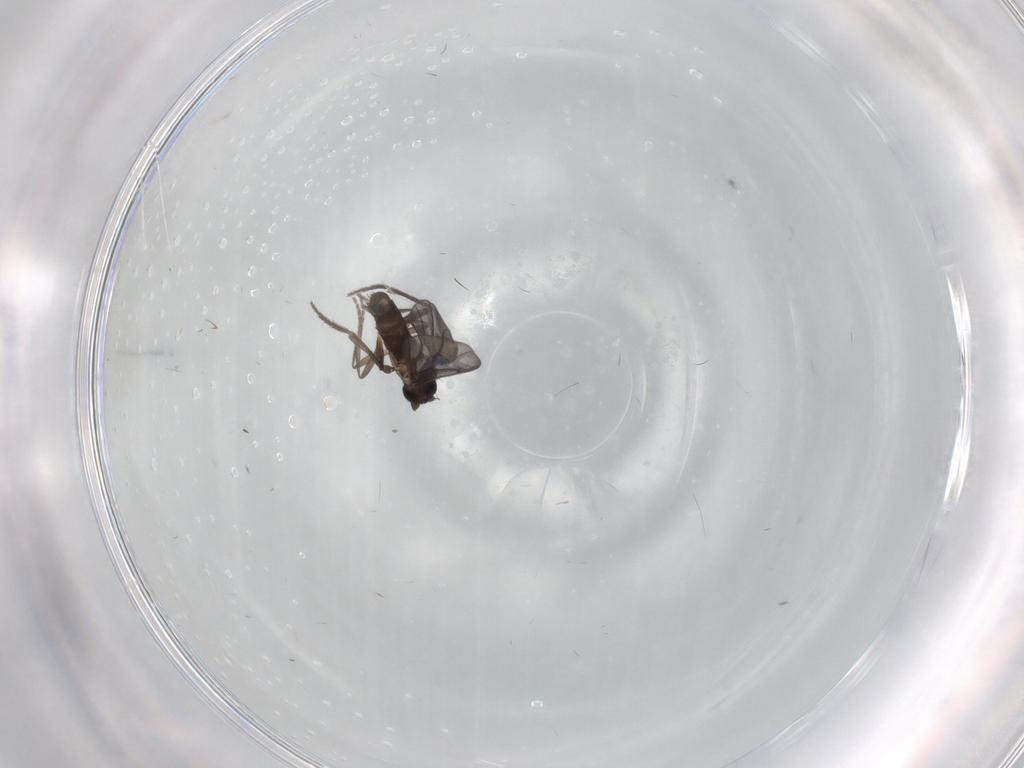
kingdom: Animalia
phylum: Arthropoda
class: Insecta
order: Diptera
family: Phoridae
